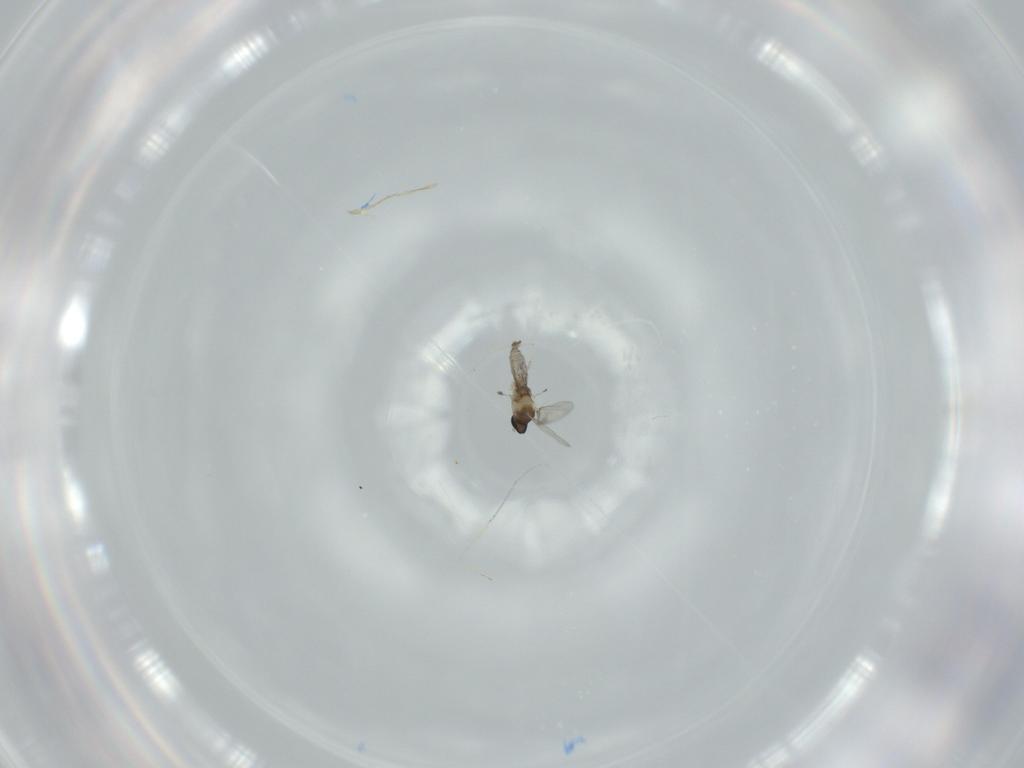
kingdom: Animalia
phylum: Arthropoda
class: Insecta
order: Diptera
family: Cecidomyiidae
